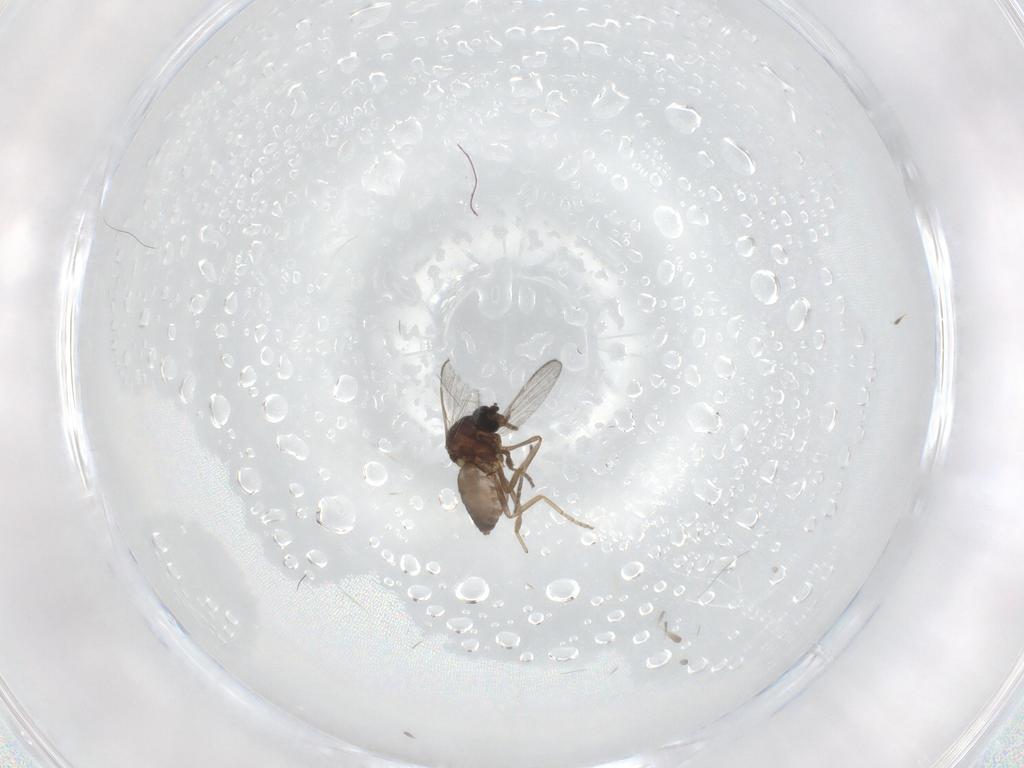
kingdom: Animalia
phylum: Arthropoda
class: Insecta
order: Diptera
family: Ceratopogonidae
